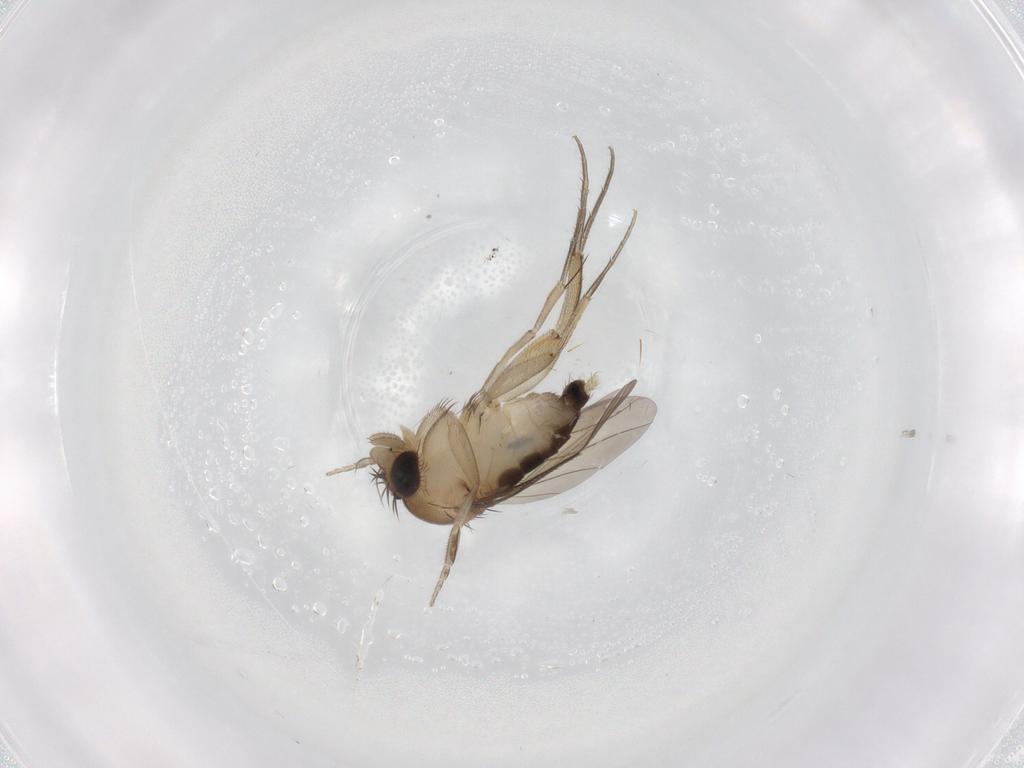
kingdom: Animalia
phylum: Arthropoda
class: Insecta
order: Diptera
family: Phoridae
